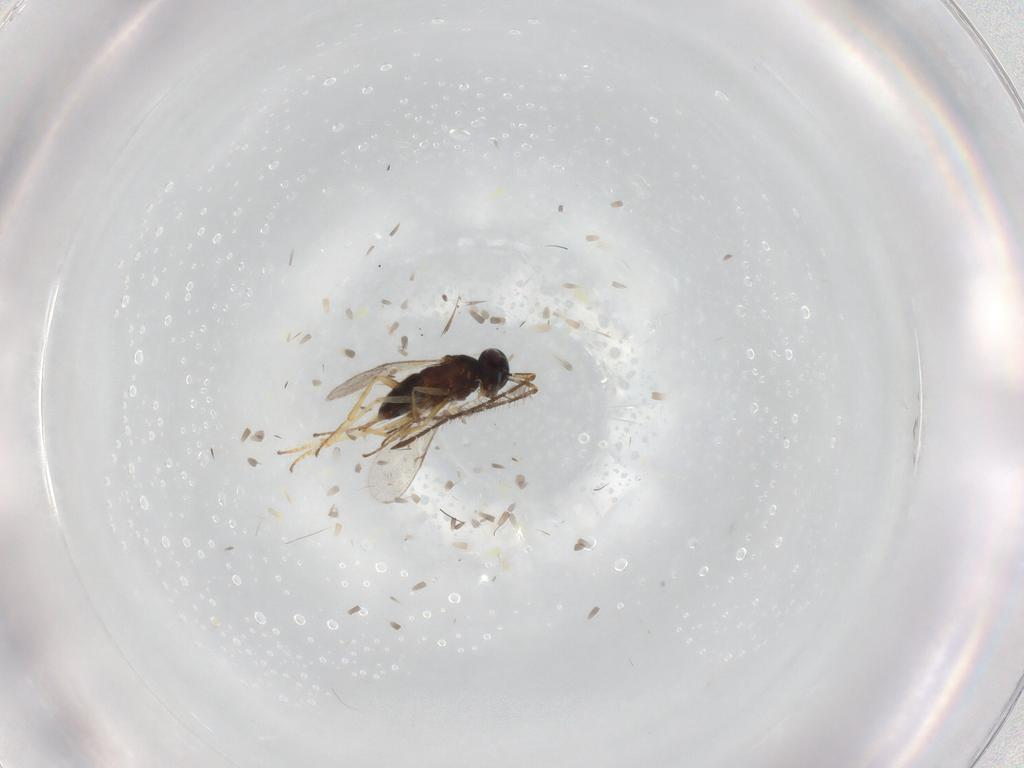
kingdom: Animalia
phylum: Arthropoda
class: Insecta
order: Hymenoptera
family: Encyrtidae
